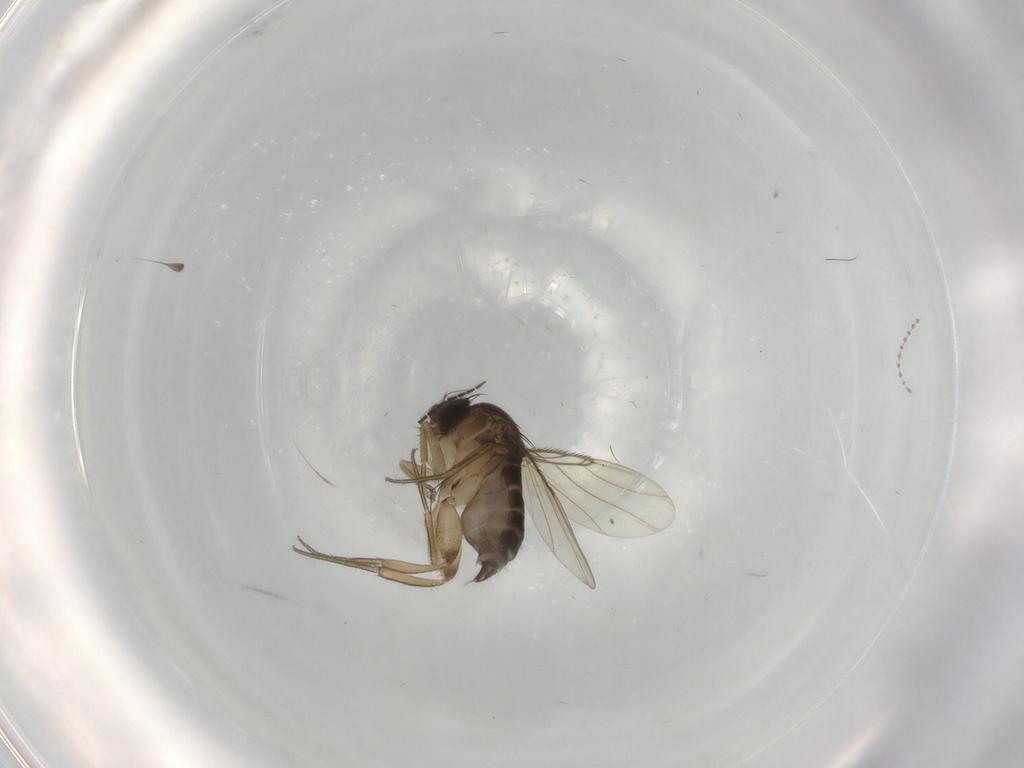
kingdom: Animalia
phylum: Arthropoda
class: Insecta
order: Diptera
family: Phoridae
